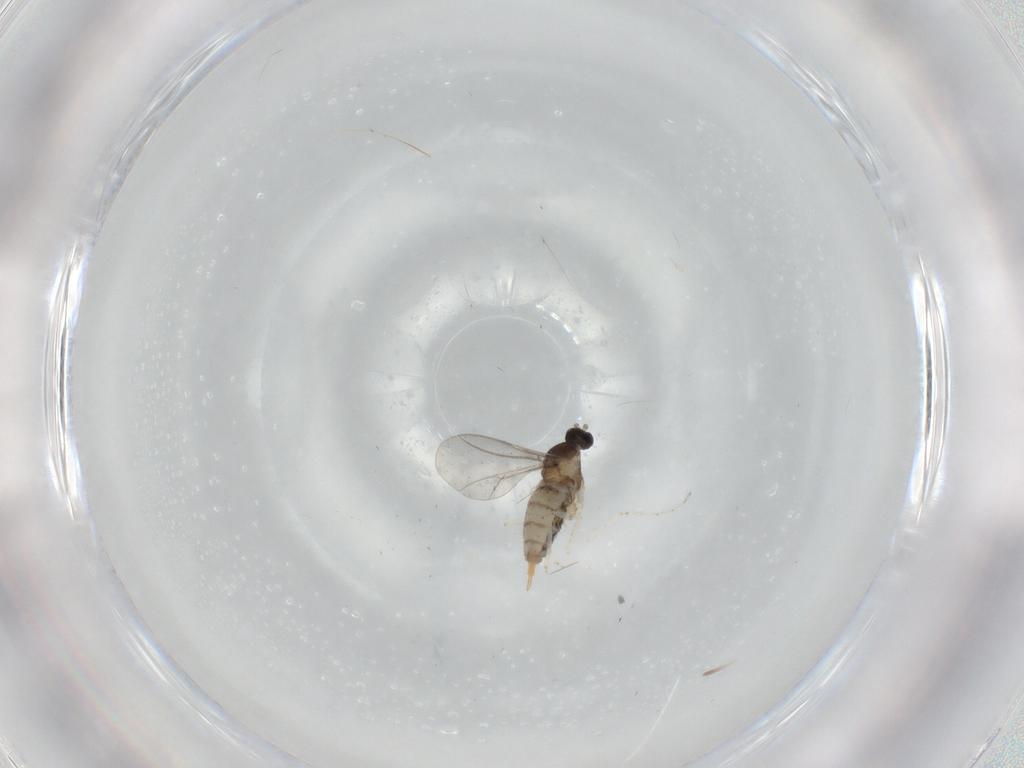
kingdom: Animalia
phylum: Arthropoda
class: Insecta
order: Diptera
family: Cecidomyiidae
